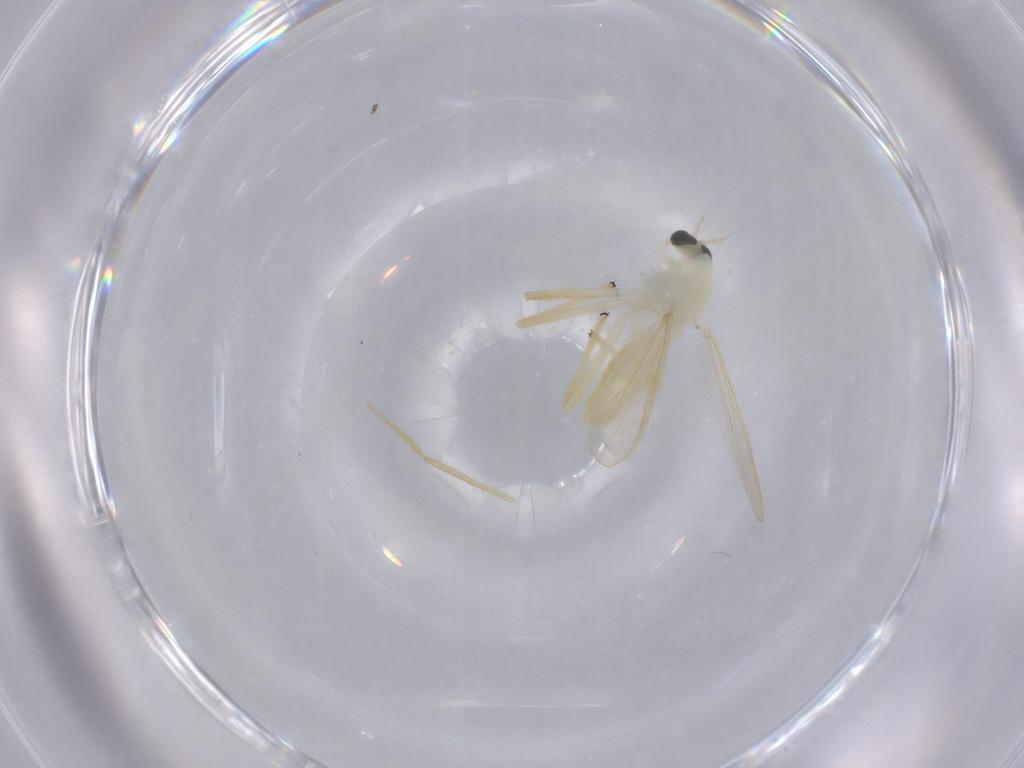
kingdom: Animalia
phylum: Arthropoda
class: Insecta
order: Diptera
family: Chironomidae
